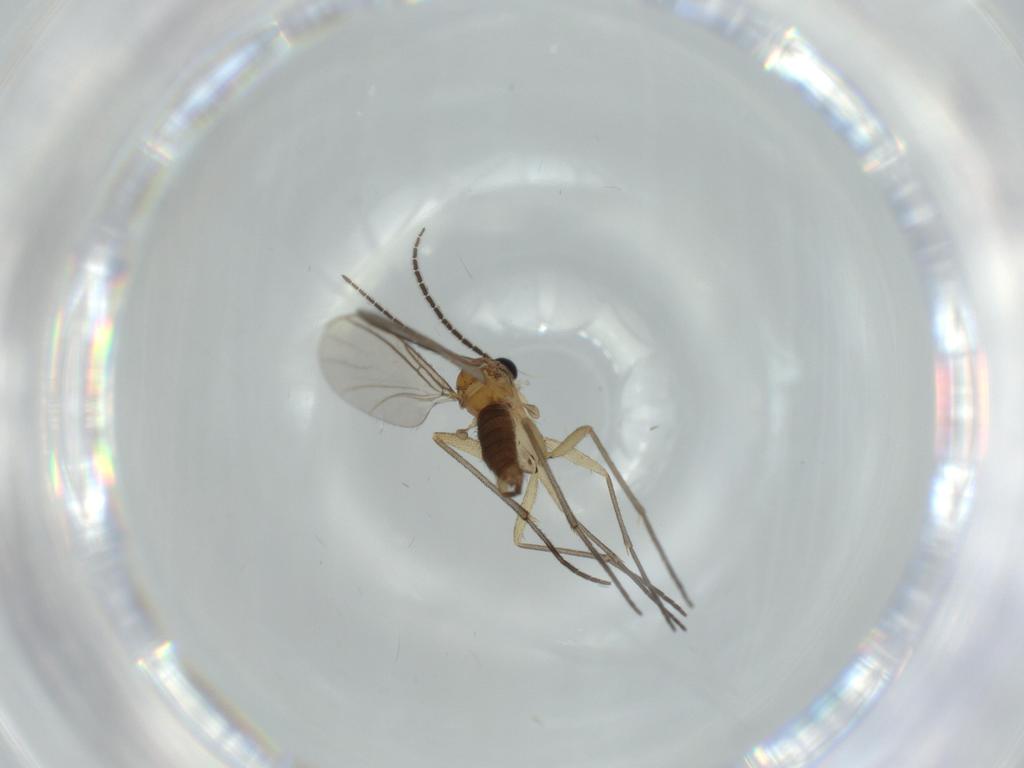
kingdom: Animalia
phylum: Arthropoda
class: Insecta
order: Diptera
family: Sciaridae
